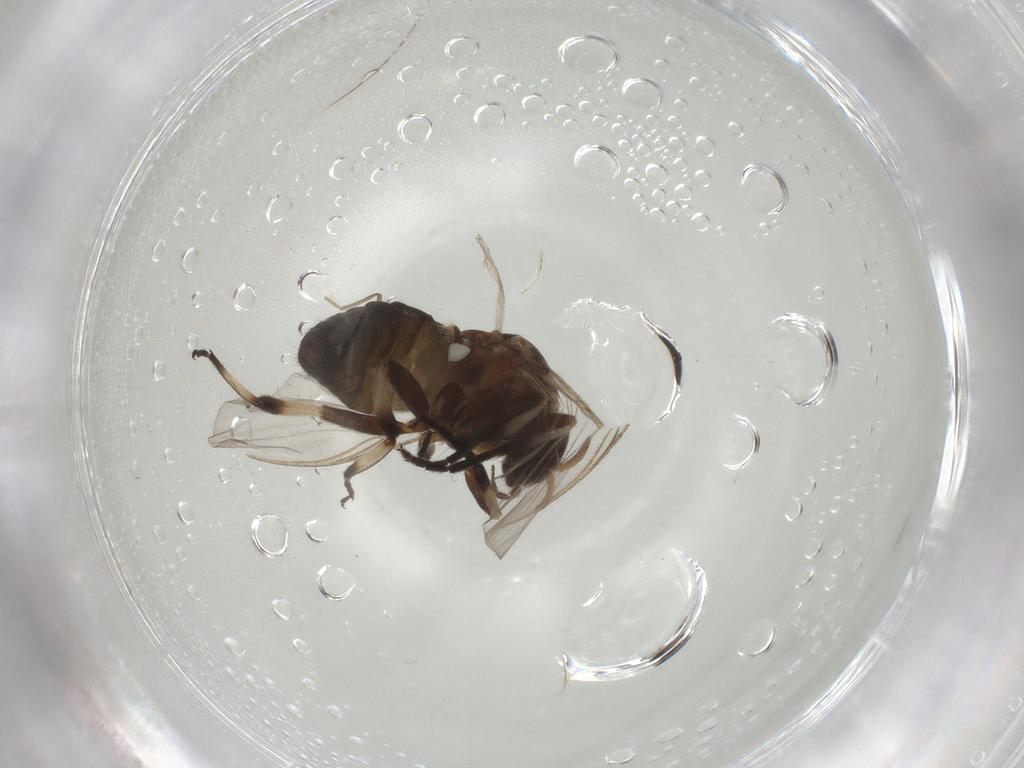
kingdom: Animalia
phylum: Arthropoda
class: Insecta
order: Diptera
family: Simuliidae
